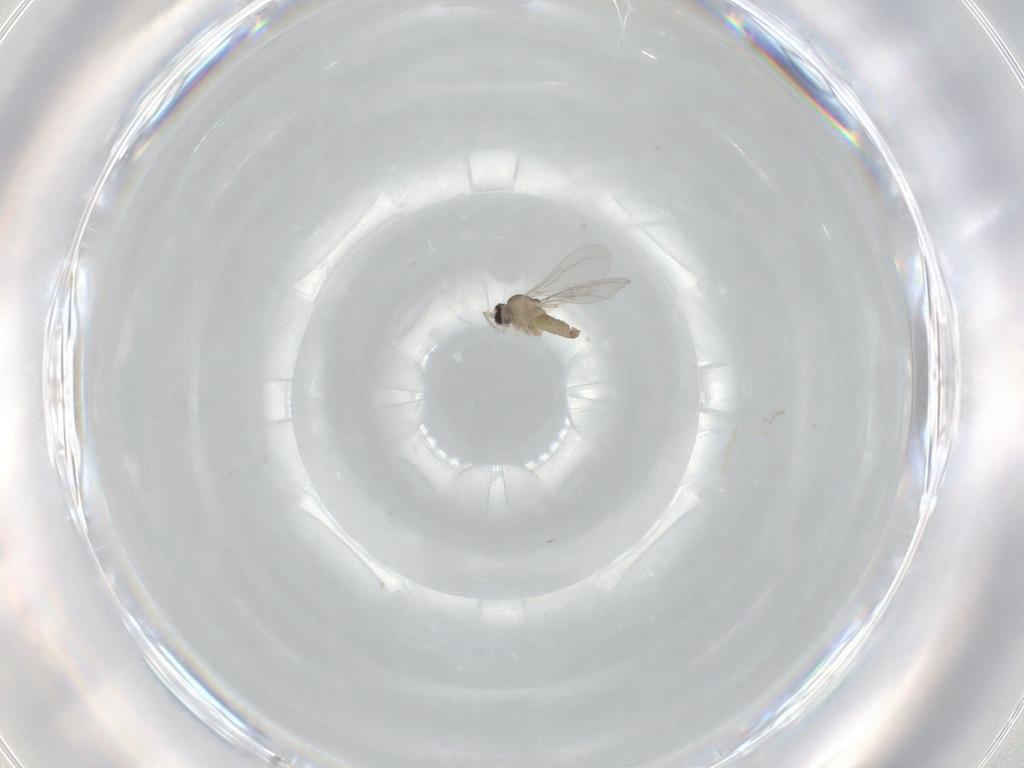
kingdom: Animalia
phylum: Arthropoda
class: Insecta
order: Diptera
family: Cecidomyiidae
